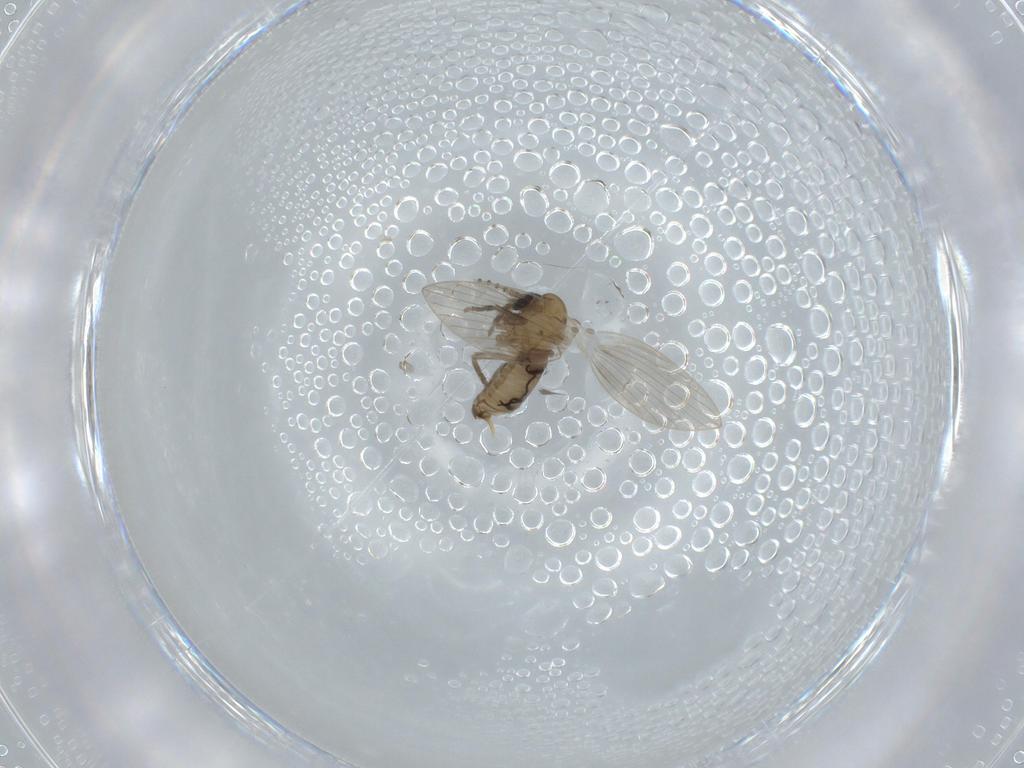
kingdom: Animalia
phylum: Arthropoda
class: Insecta
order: Diptera
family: Psychodidae
